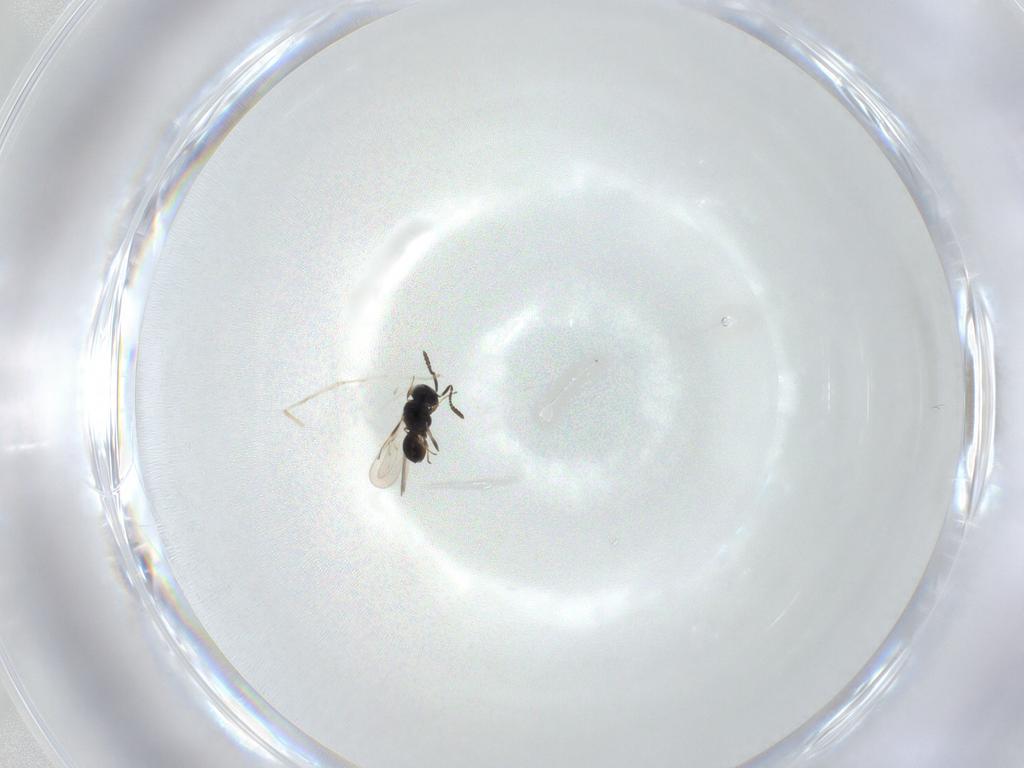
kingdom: Animalia
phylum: Arthropoda
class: Insecta
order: Hymenoptera
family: Scelionidae
